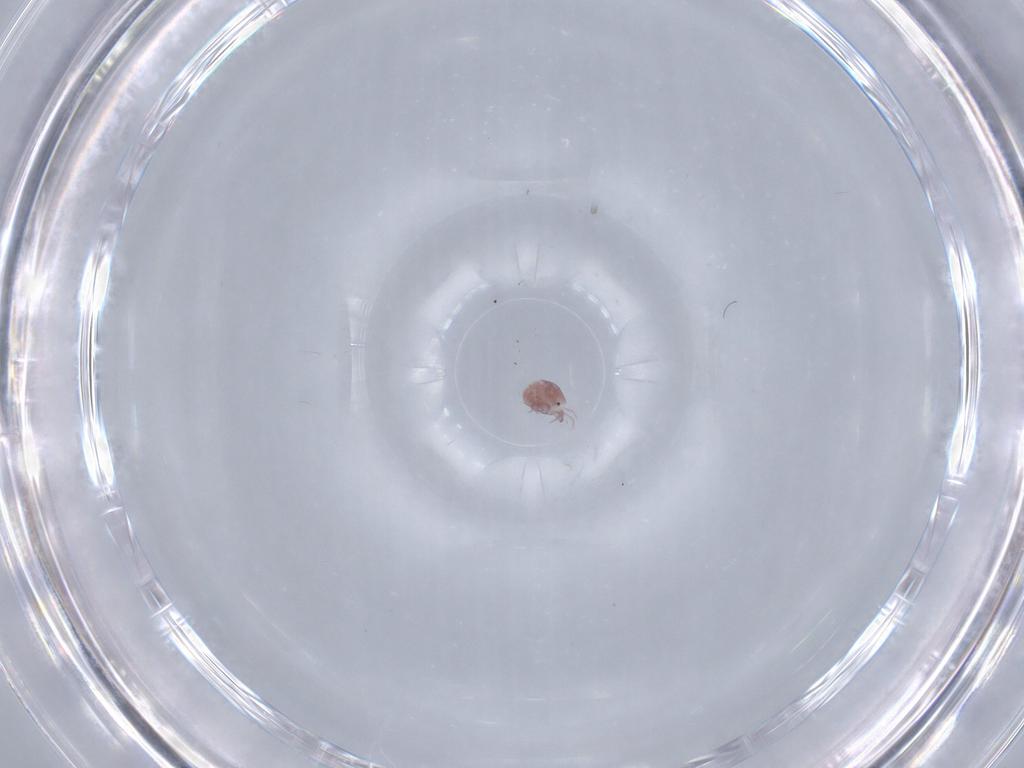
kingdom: Animalia
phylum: Arthropoda
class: Arachnida
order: Trombidiformes
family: Pionidae
